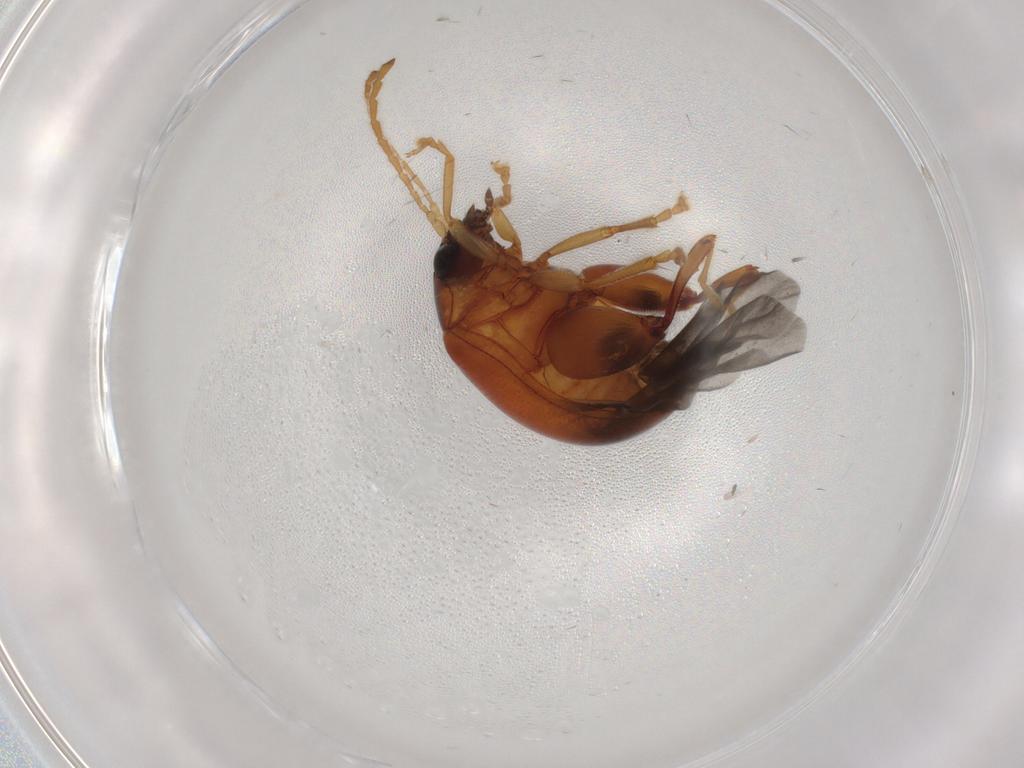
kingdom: Animalia
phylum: Arthropoda
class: Insecta
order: Coleoptera
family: Chrysomelidae
